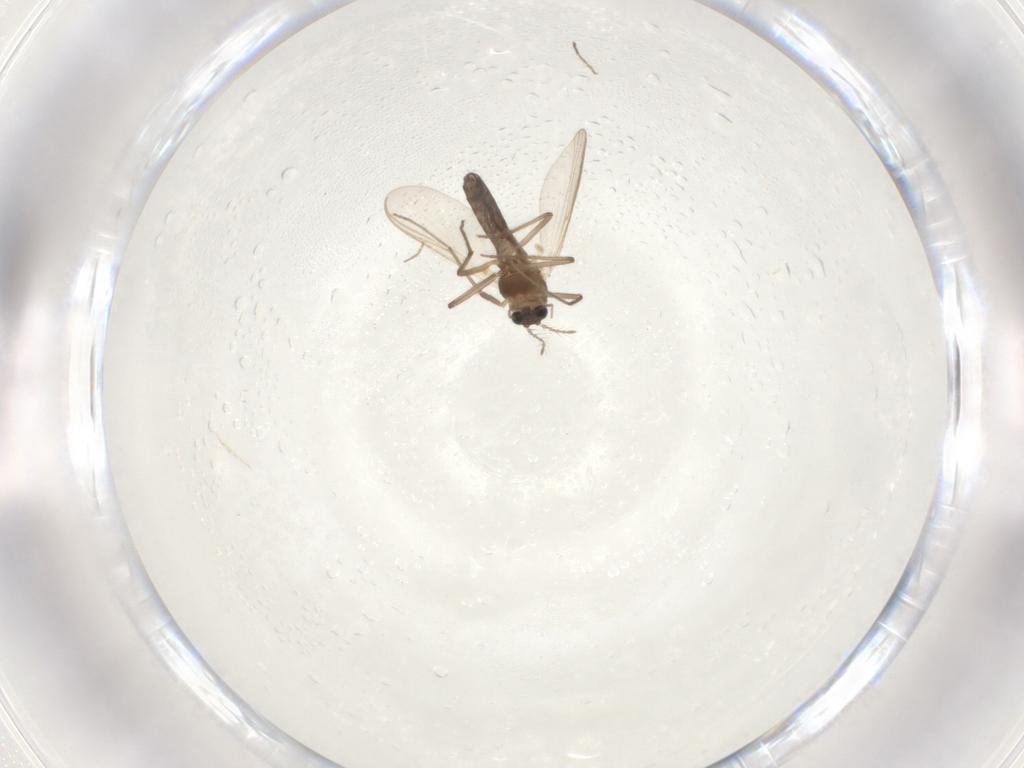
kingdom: Animalia
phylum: Arthropoda
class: Insecta
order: Diptera
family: Chironomidae
